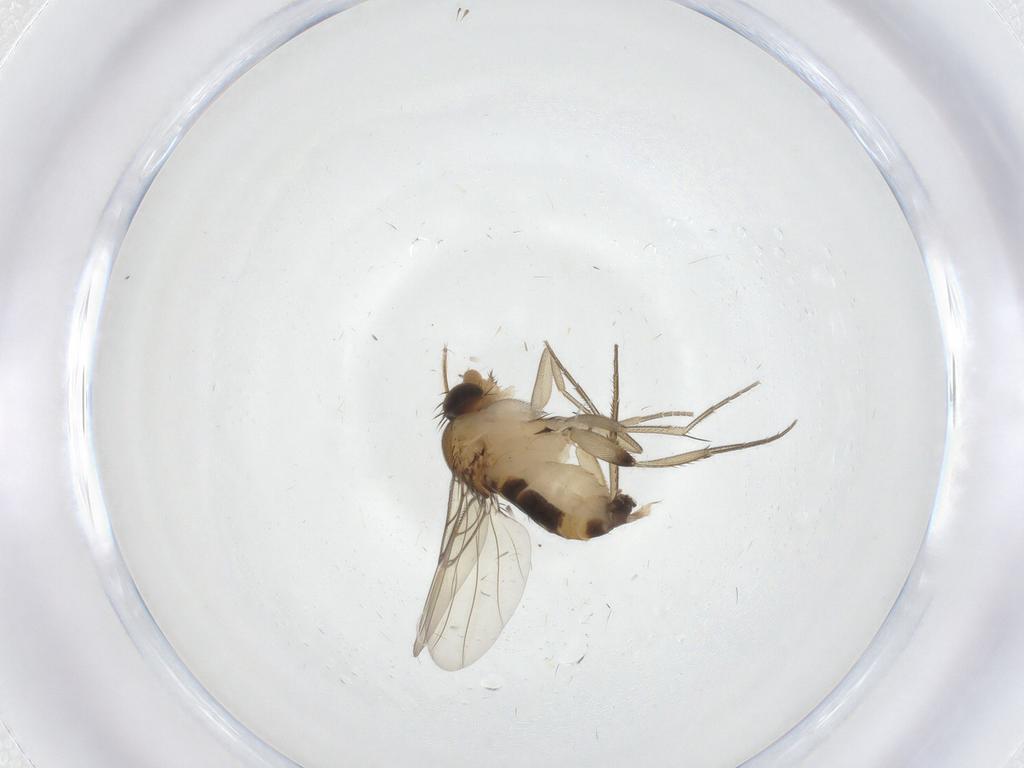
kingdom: Animalia
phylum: Arthropoda
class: Insecta
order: Diptera
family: Phoridae
